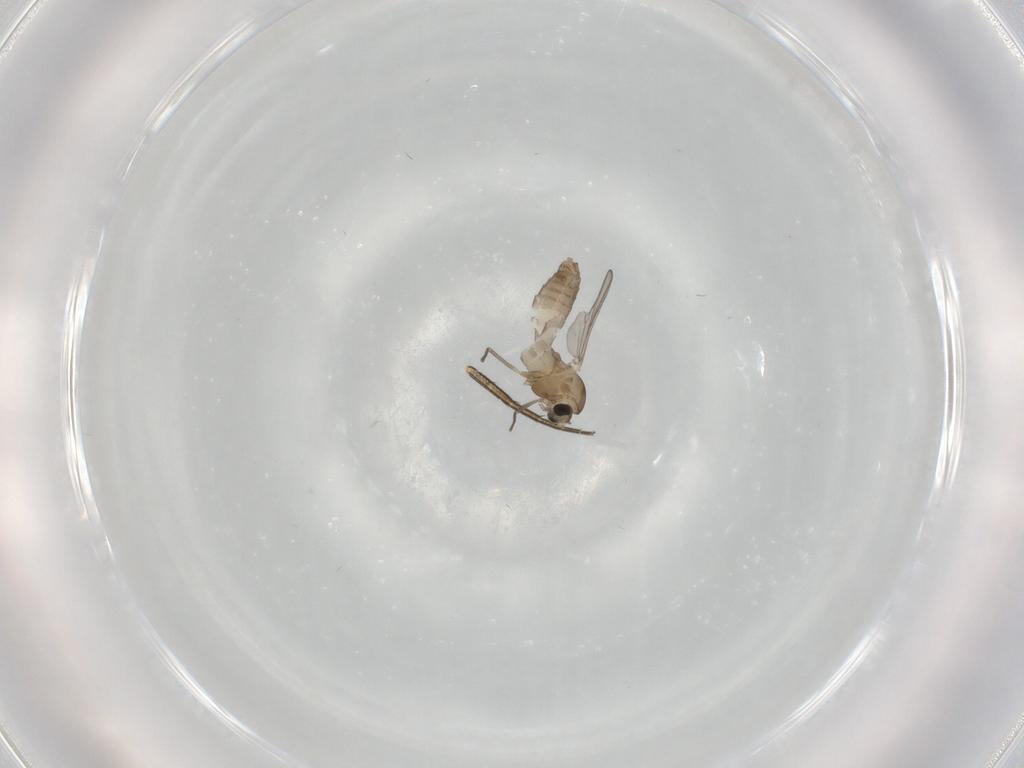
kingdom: Animalia
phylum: Arthropoda
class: Insecta
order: Diptera
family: Chironomidae
